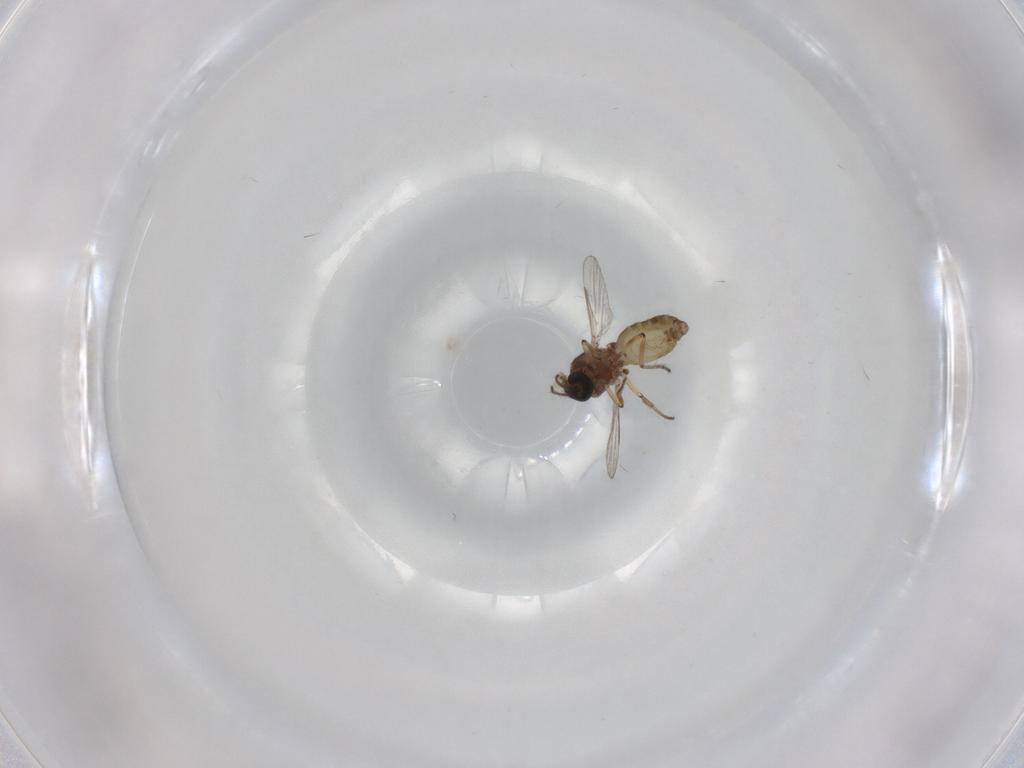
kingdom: Animalia
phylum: Arthropoda
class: Insecta
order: Diptera
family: Ceratopogonidae
